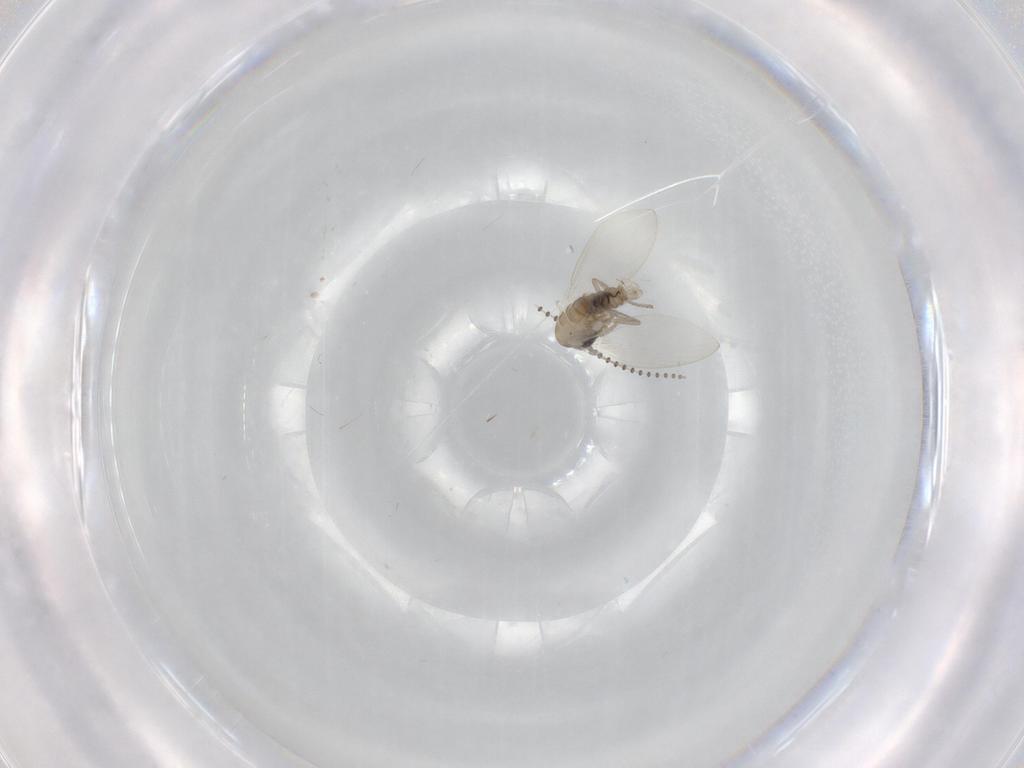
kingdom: Animalia
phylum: Arthropoda
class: Insecta
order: Diptera
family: Psychodidae
